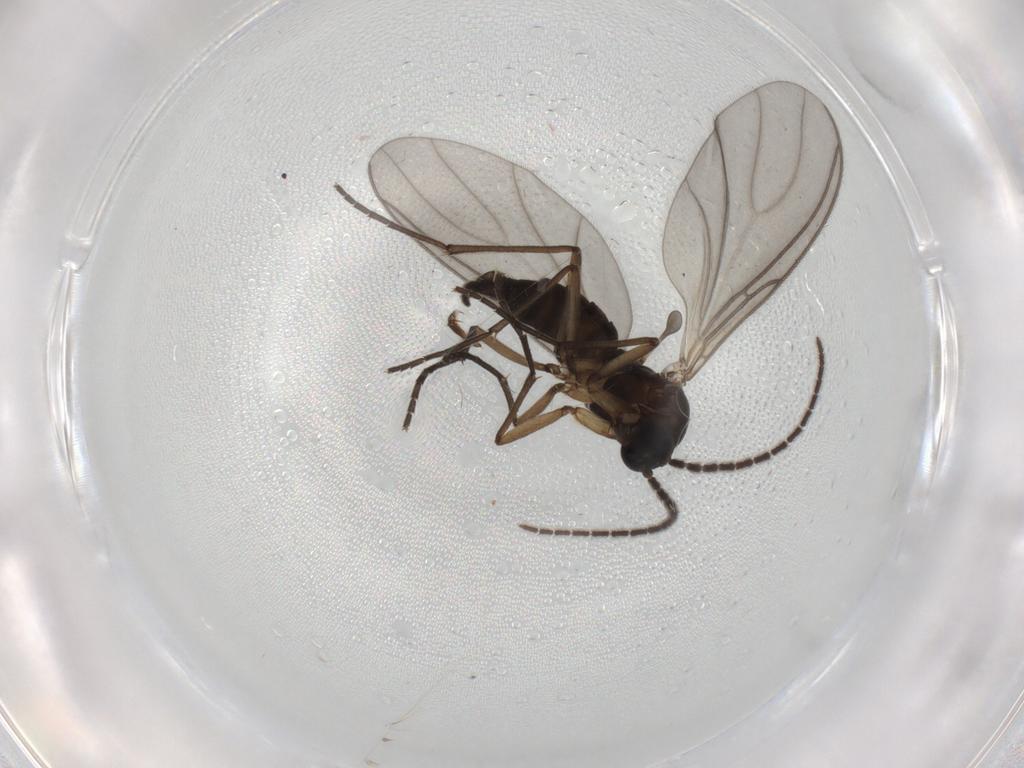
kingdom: Animalia
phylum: Arthropoda
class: Insecta
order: Diptera
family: Sciaridae
